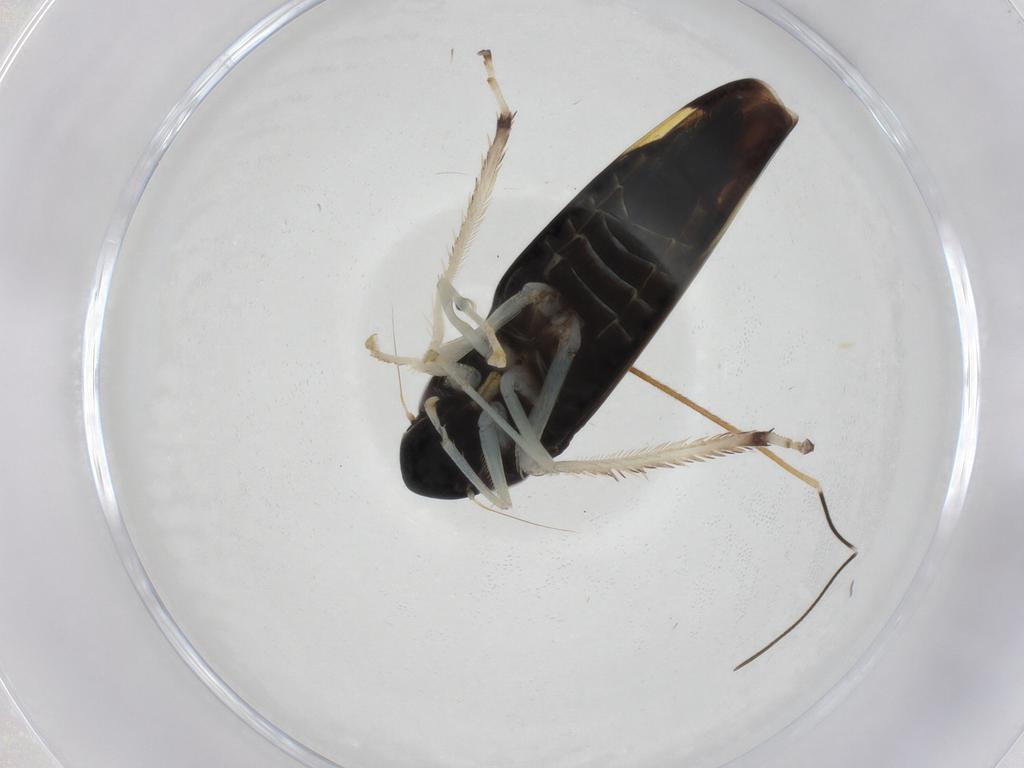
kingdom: Animalia
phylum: Arthropoda
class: Insecta
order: Hemiptera
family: Cicadellidae
